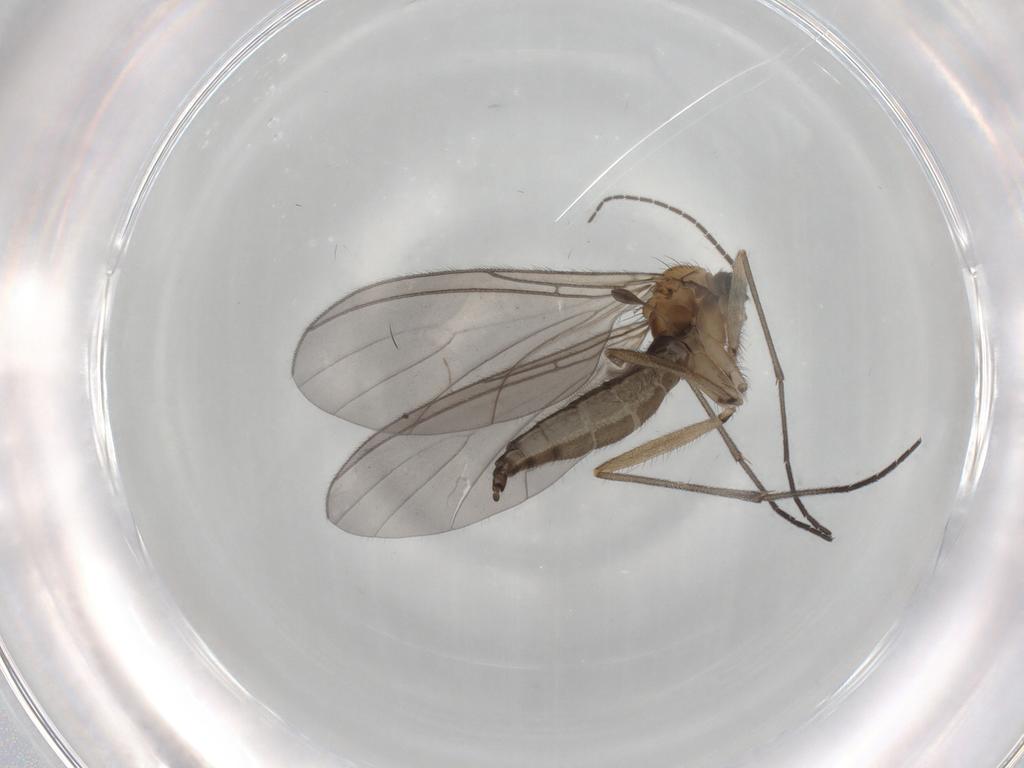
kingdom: Animalia
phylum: Arthropoda
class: Insecta
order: Diptera
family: Sciaridae
